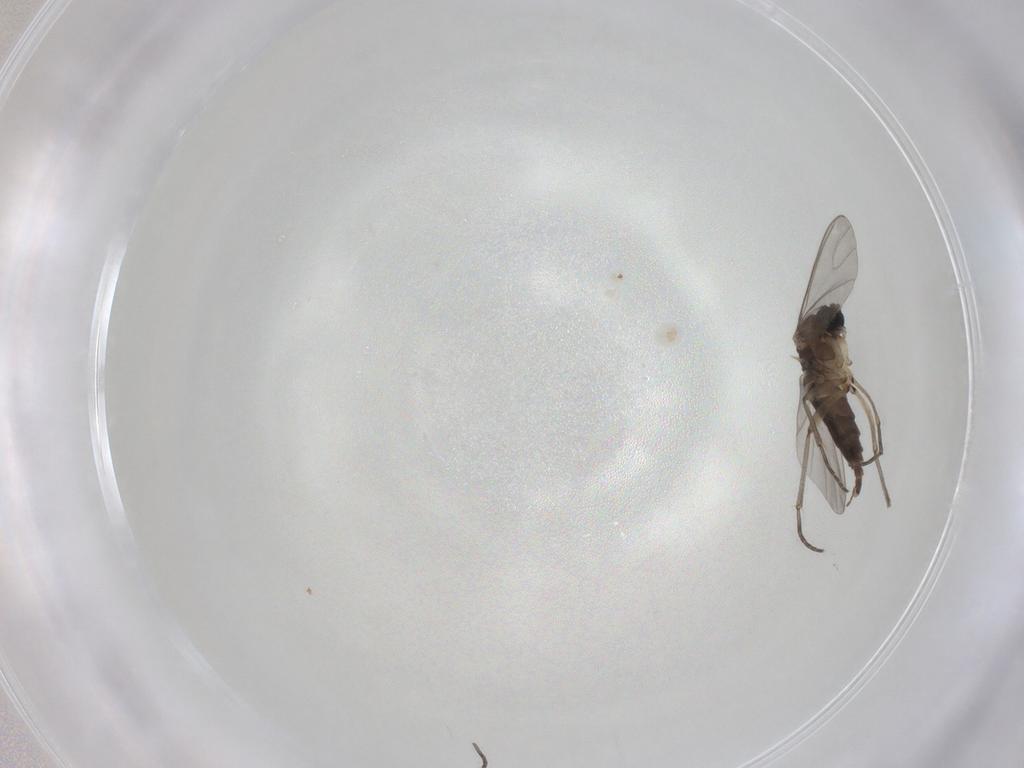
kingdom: Animalia
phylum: Arthropoda
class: Insecta
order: Diptera
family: Sciaridae
